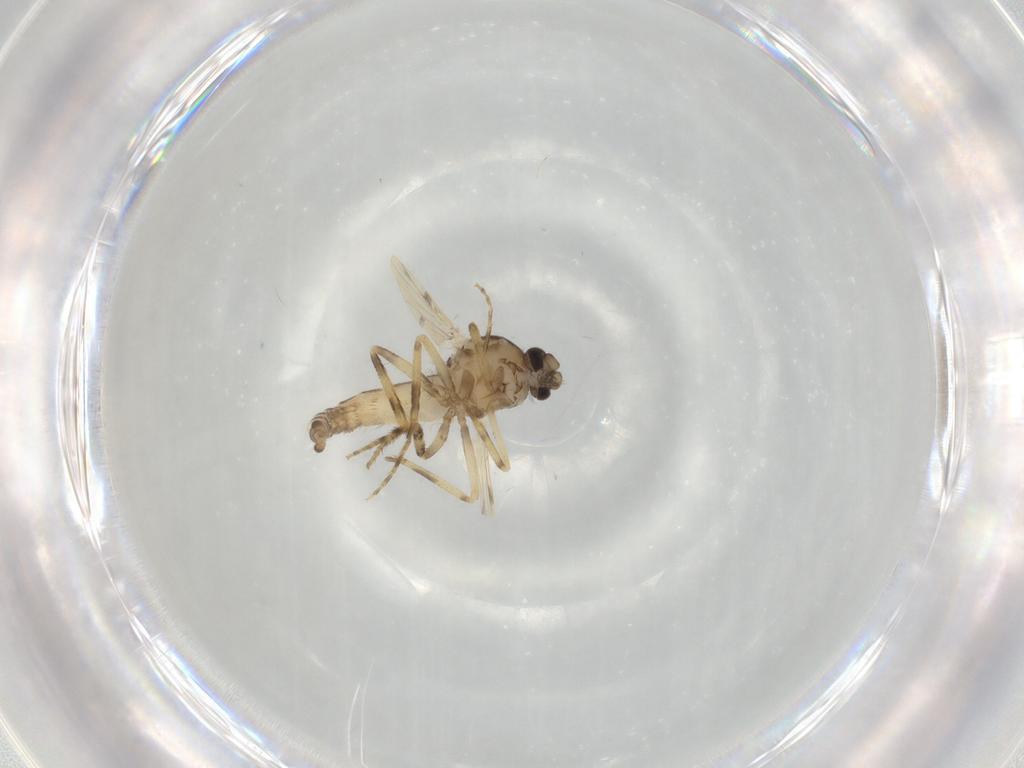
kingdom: Animalia
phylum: Arthropoda
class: Insecta
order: Diptera
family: Ceratopogonidae
